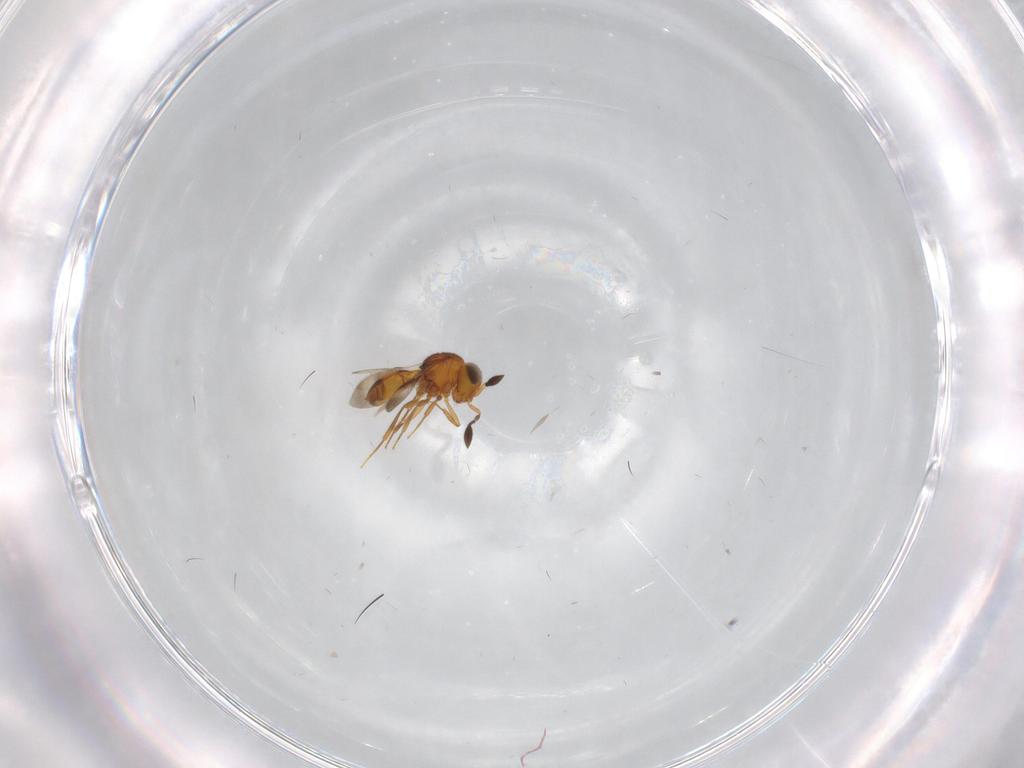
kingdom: Animalia
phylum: Arthropoda
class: Insecta
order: Hymenoptera
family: Scelionidae
